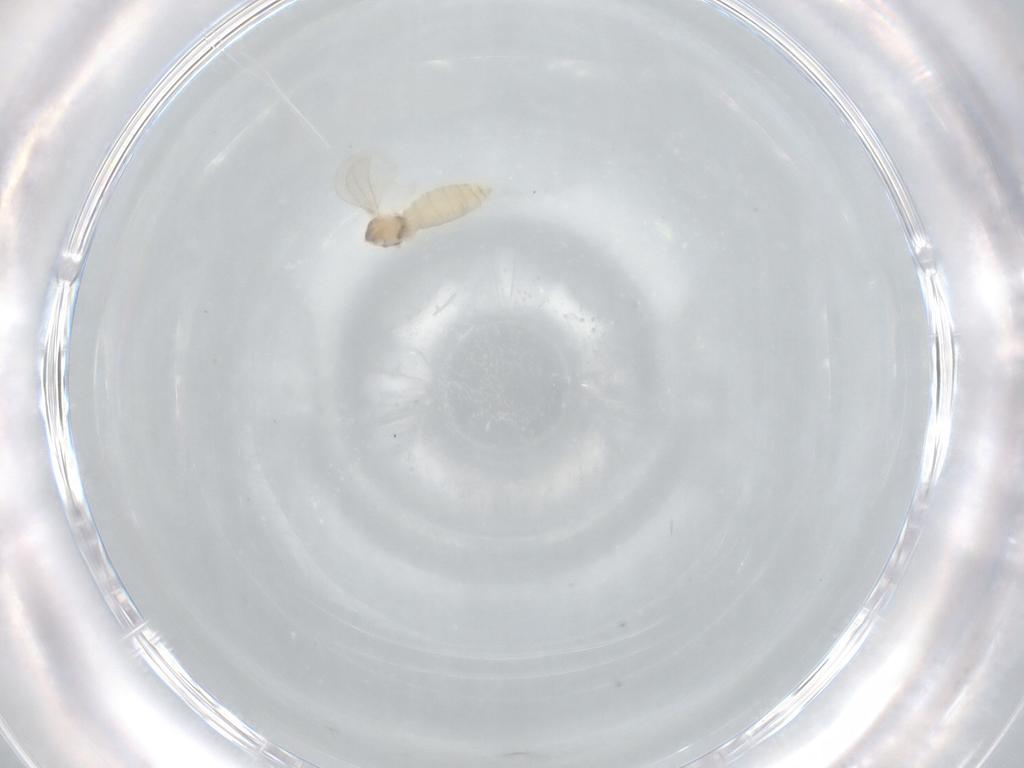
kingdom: Animalia
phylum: Arthropoda
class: Insecta
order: Diptera
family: Cecidomyiidae
